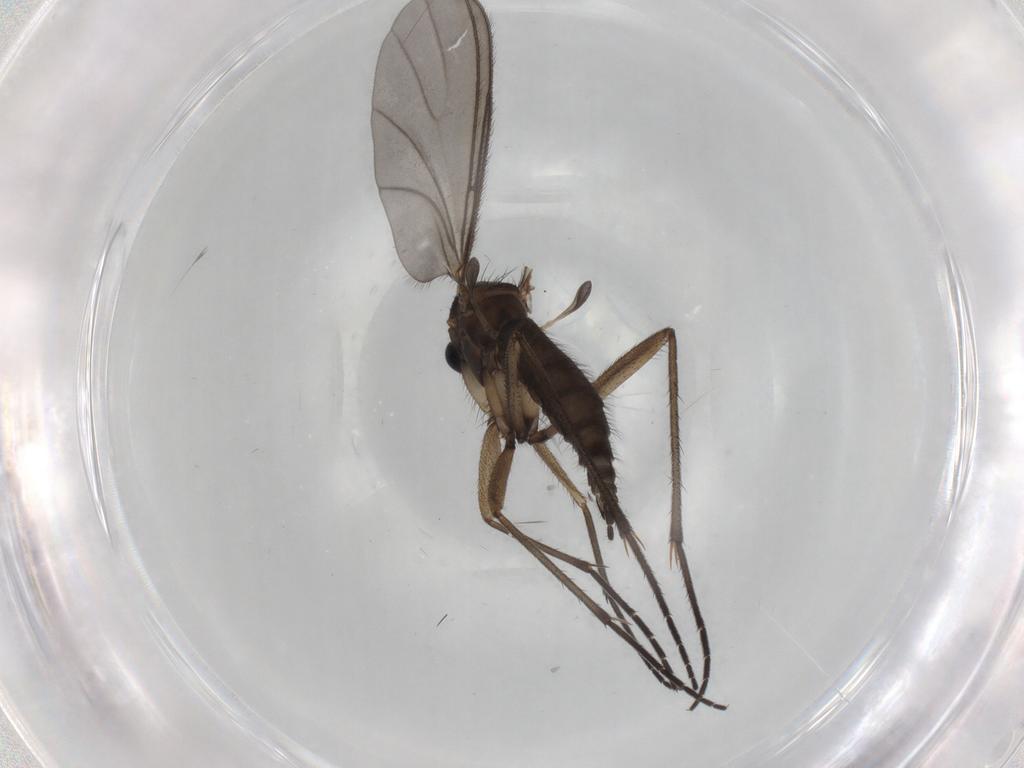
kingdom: Animalia
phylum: Arthropoda
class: Insecta
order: Diptera
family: Sciaridae
